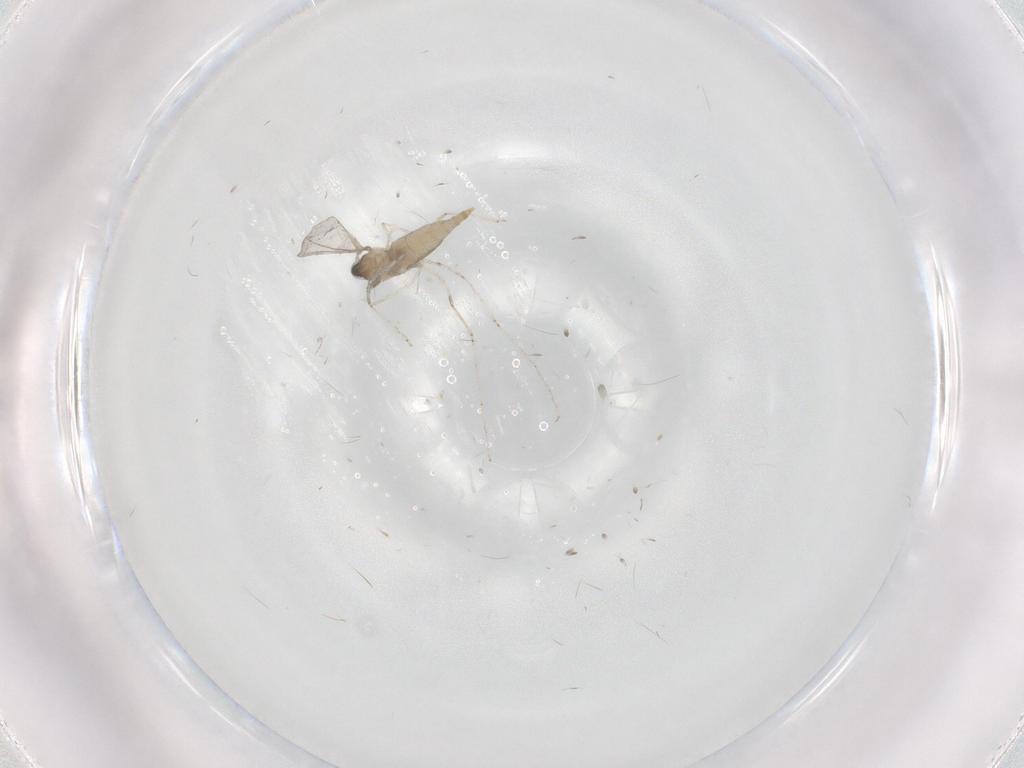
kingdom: Animalia
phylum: Arthropoda
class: Insecta
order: Diptera
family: Cecidomyiidae
